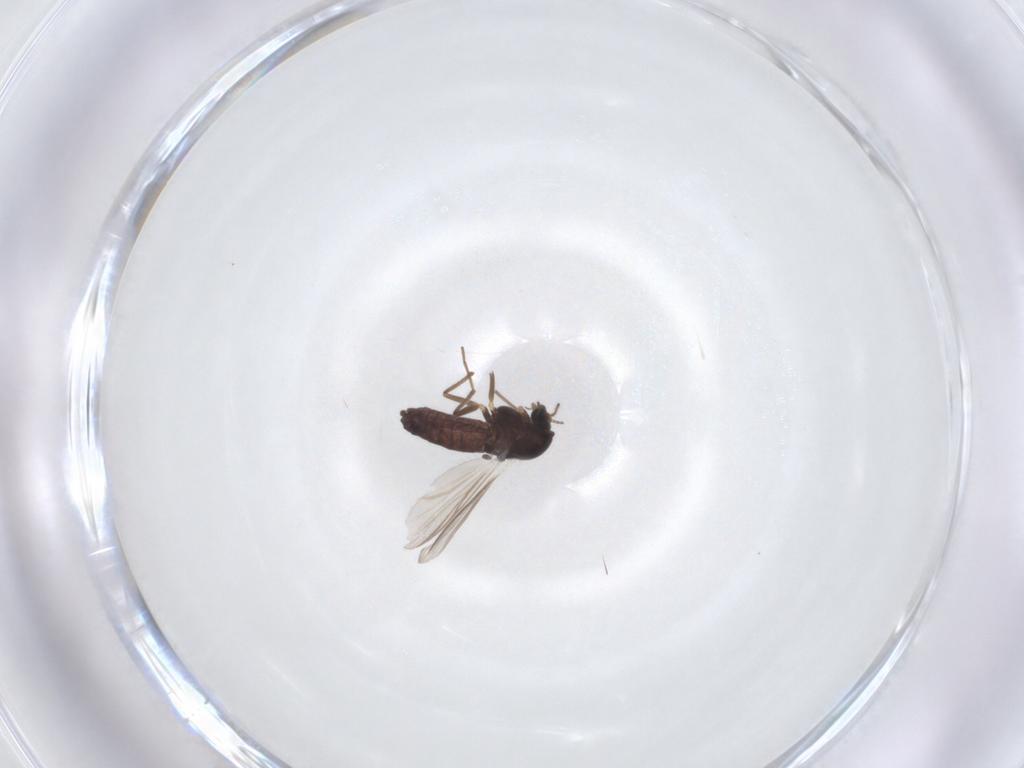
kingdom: Animalia
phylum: Arthropoda
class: Insecta
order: Diptera
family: Chironomidae
